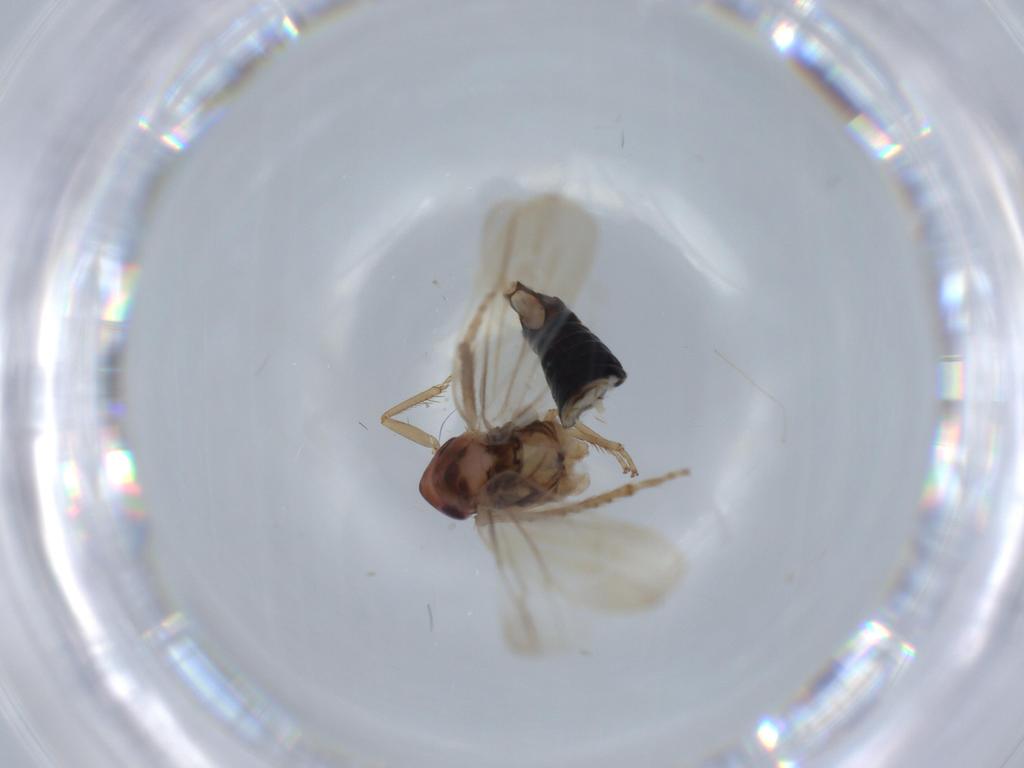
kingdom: Animalia
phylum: Arthropoda
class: Insecta
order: Hemiptera
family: Cicadellidae
